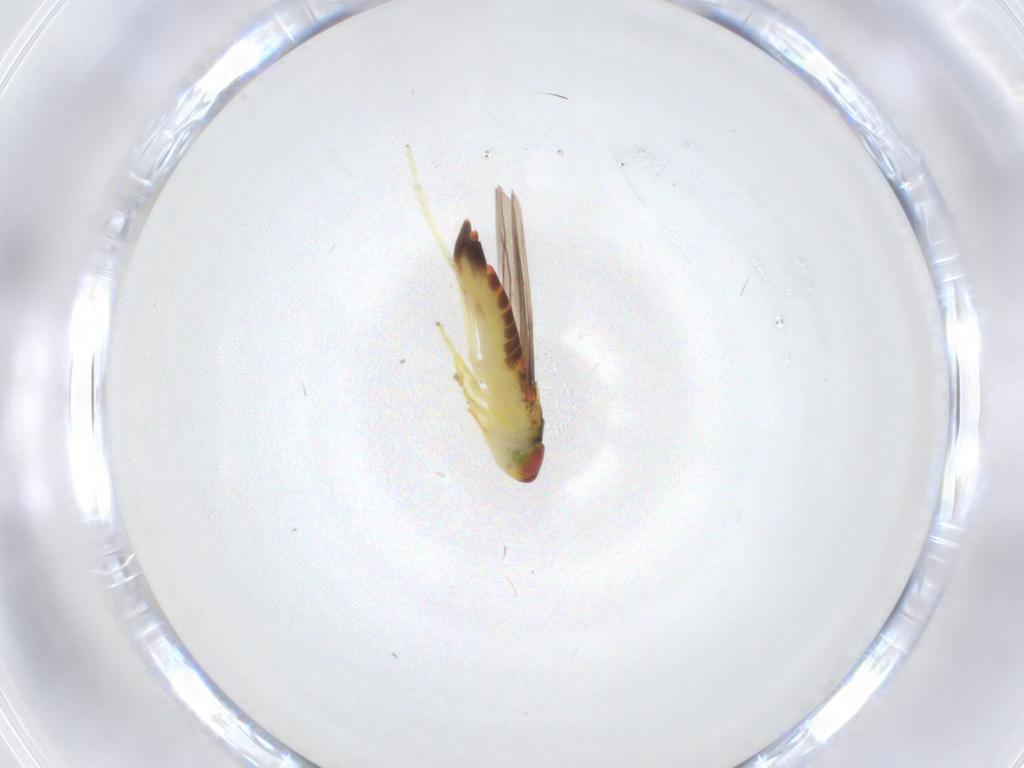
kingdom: Animalia
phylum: Arthropoda
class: Insecta
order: Hemiptera
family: Cicadellidae
